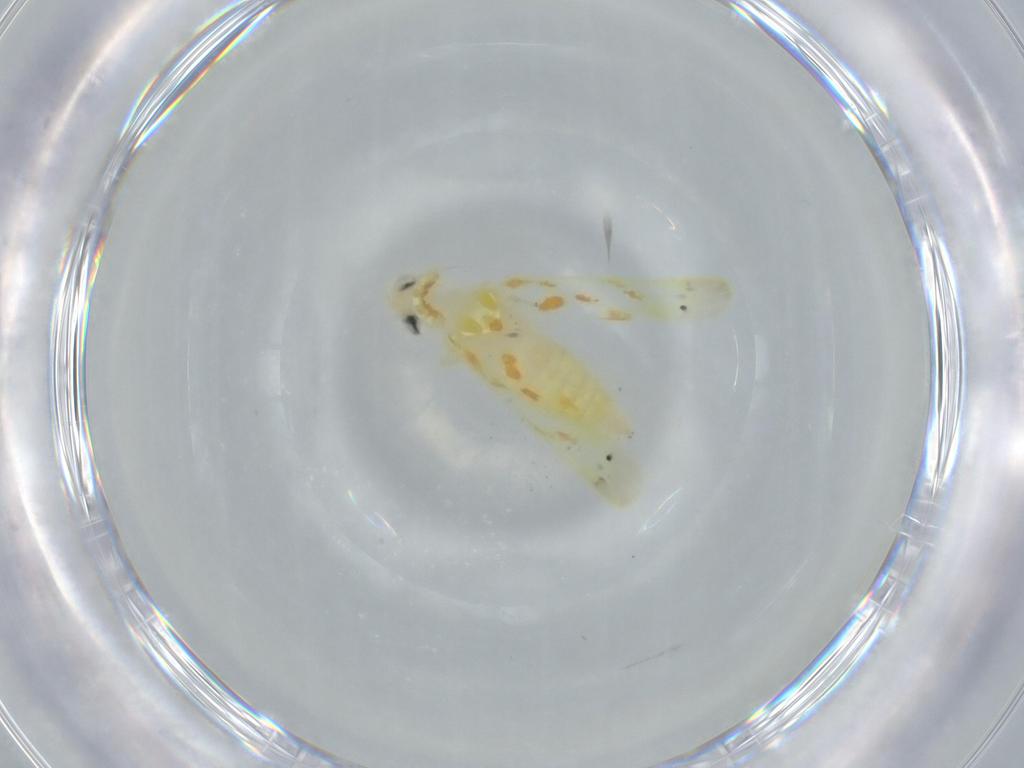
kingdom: Animalia
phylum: Arthropoda
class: Insecta
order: Hemiptera
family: Cicadellidae
